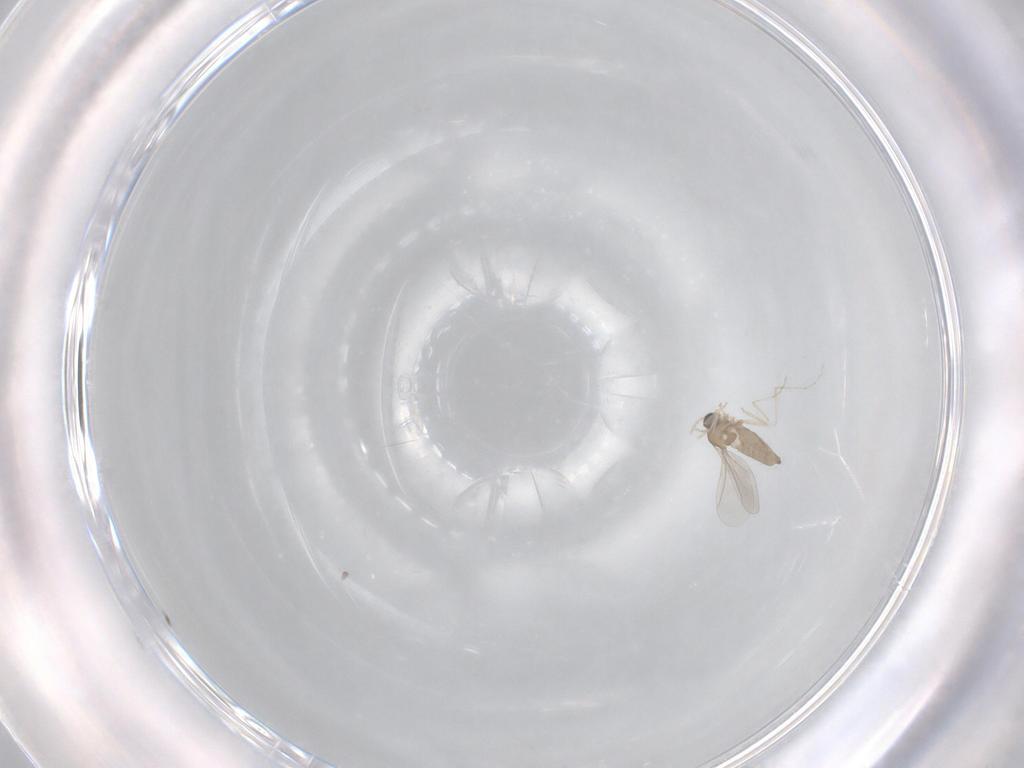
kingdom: Animalia
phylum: Arthropoda
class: Insecta
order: Diptera
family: Cecidomyiidae
